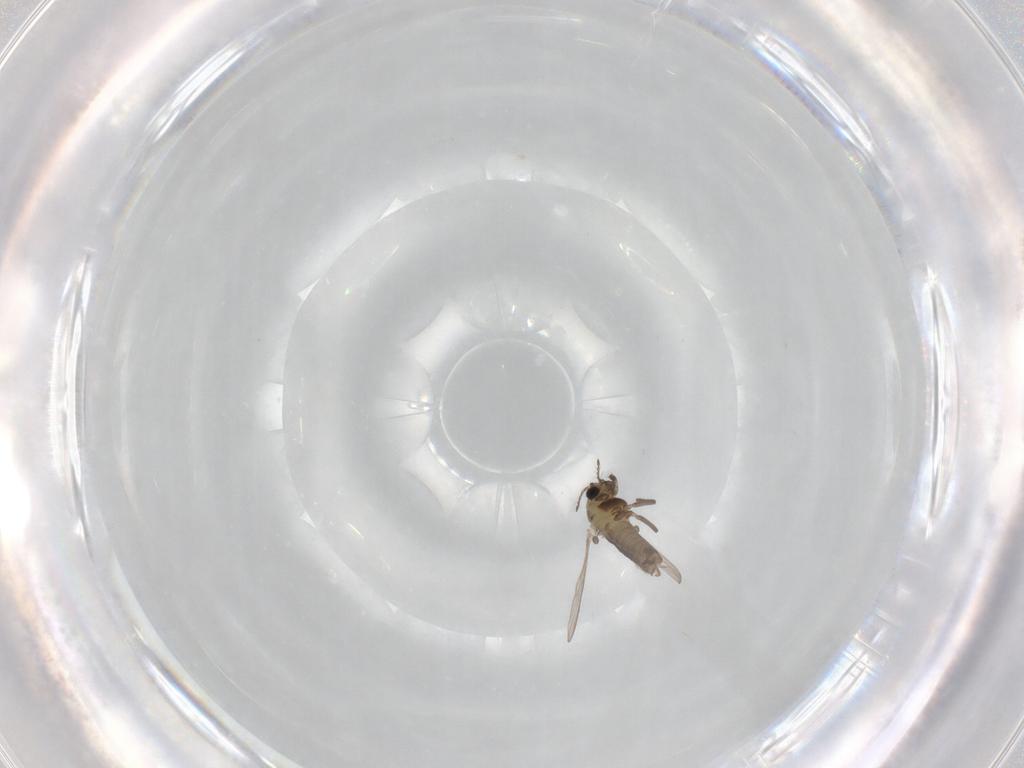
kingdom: Animalia
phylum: Arthropoda
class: Insecta
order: Diptera
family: Chironomidae
